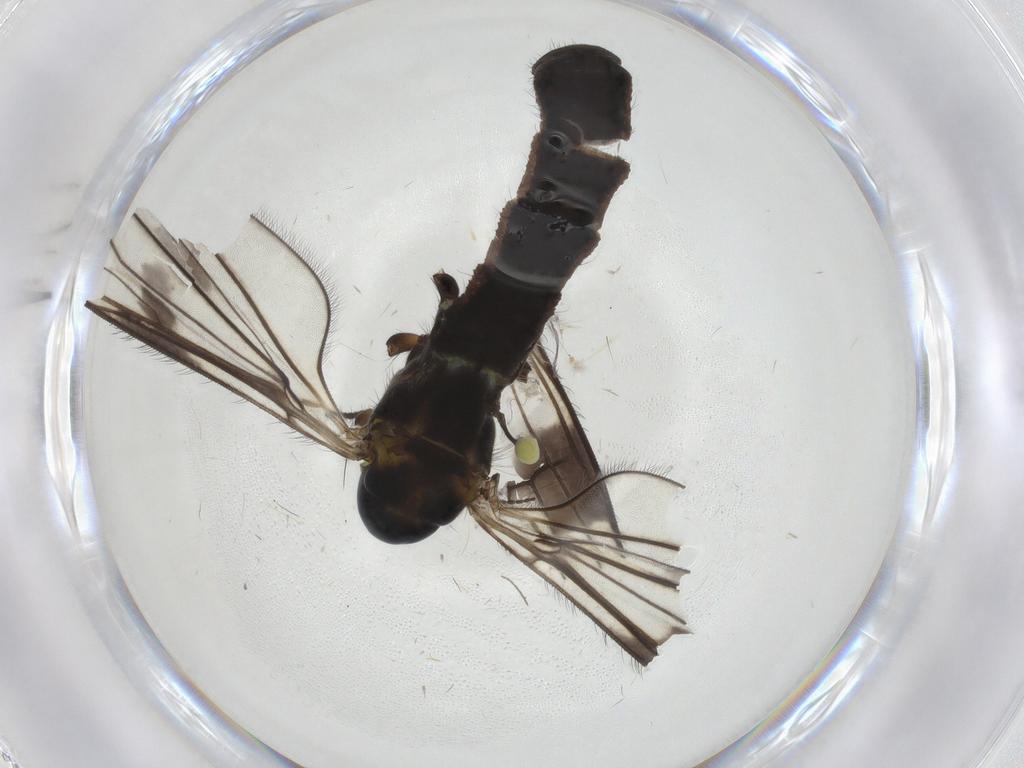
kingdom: Animalia
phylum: Arthropoda
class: Insecta
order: Diptera
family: Limoniidae
